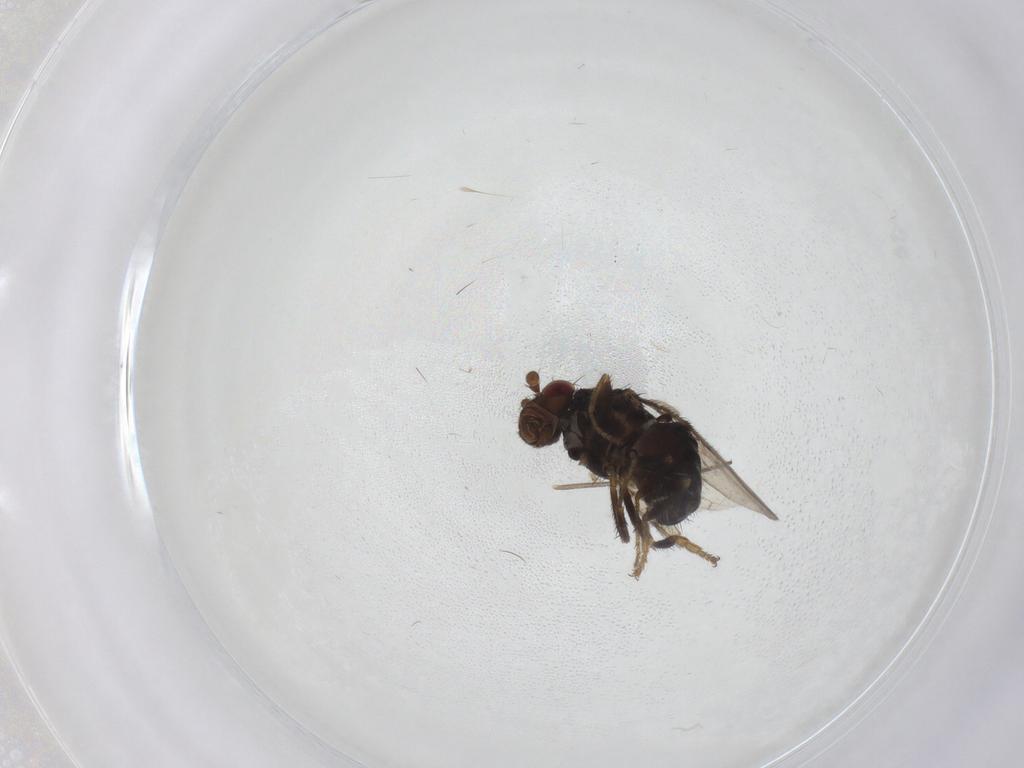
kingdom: Animalia
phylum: Arthropoda
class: Insecta
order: Diptera
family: Sphaeroceridae
